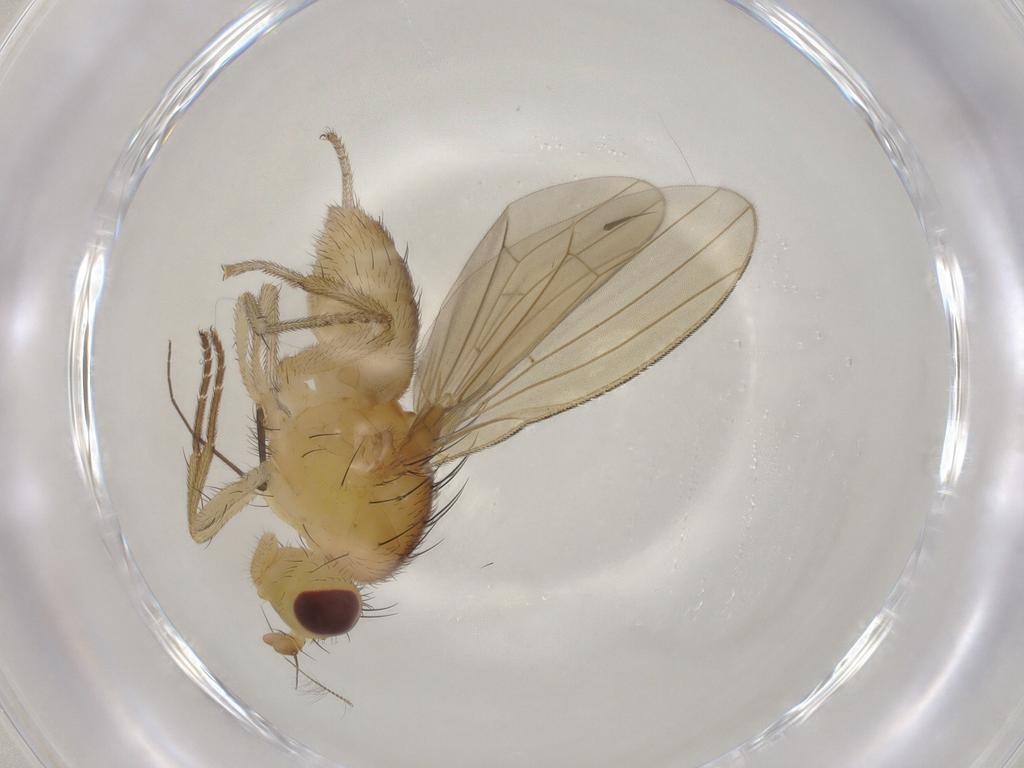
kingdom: Animalia
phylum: Arthropoda
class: Insecta
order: Diptera
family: Hybotidae
